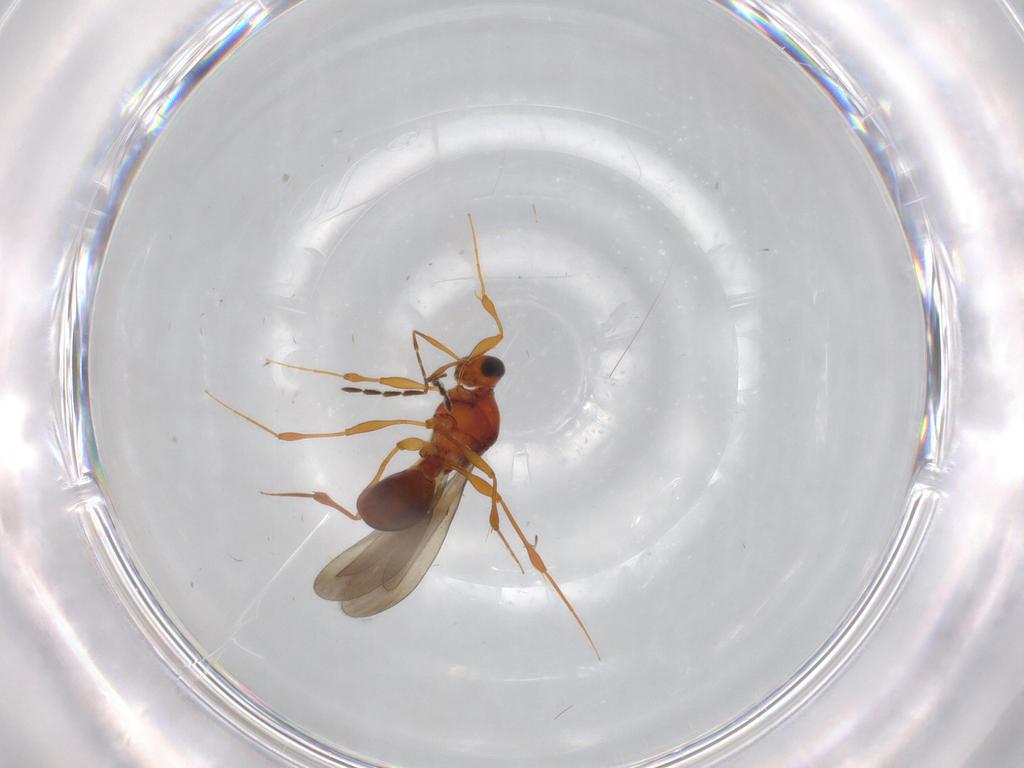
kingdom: Animalia
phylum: Arthropoda
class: Insecta
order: Hymenoptera
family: Platygastridae
